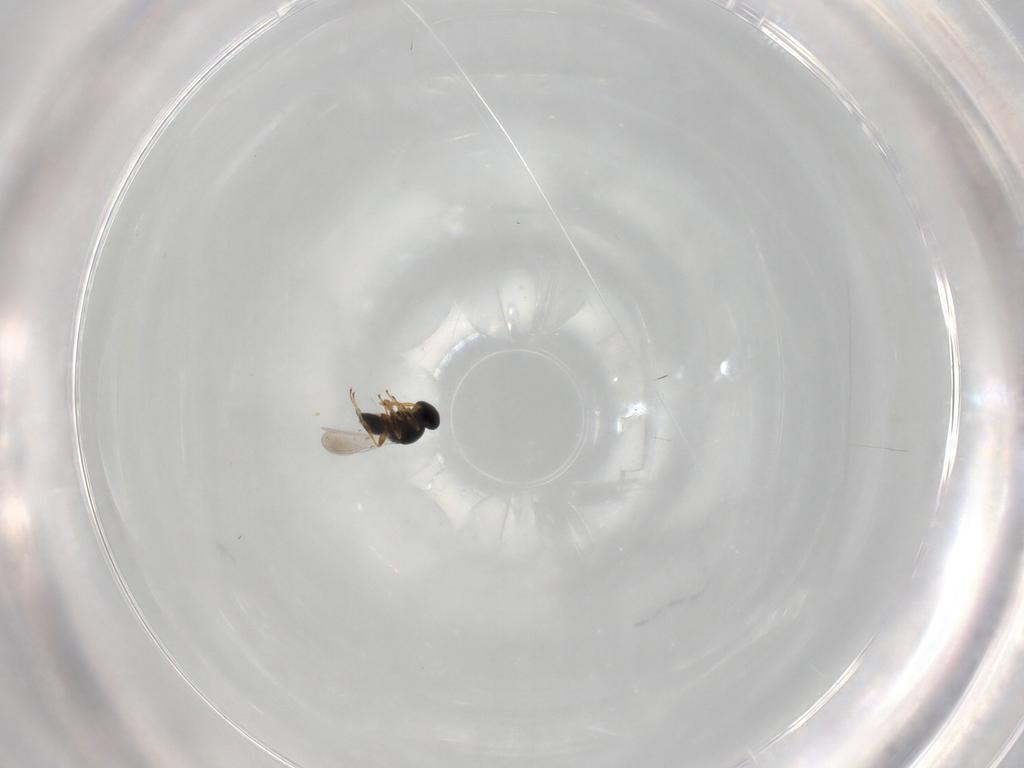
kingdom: Animalia
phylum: Arthropoda
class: Insecta
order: Hymenoptera
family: Platygastridae
